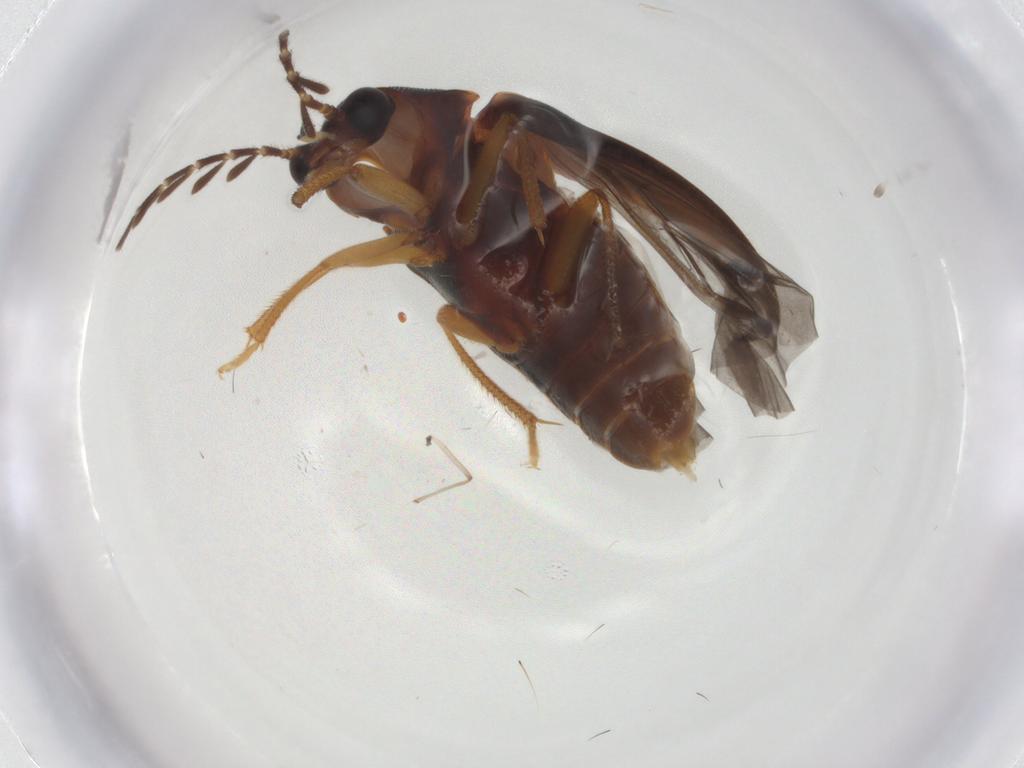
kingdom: Animalia
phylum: Arthropoda
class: Insecta
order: Coleoptera
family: Ptilodactylidae
